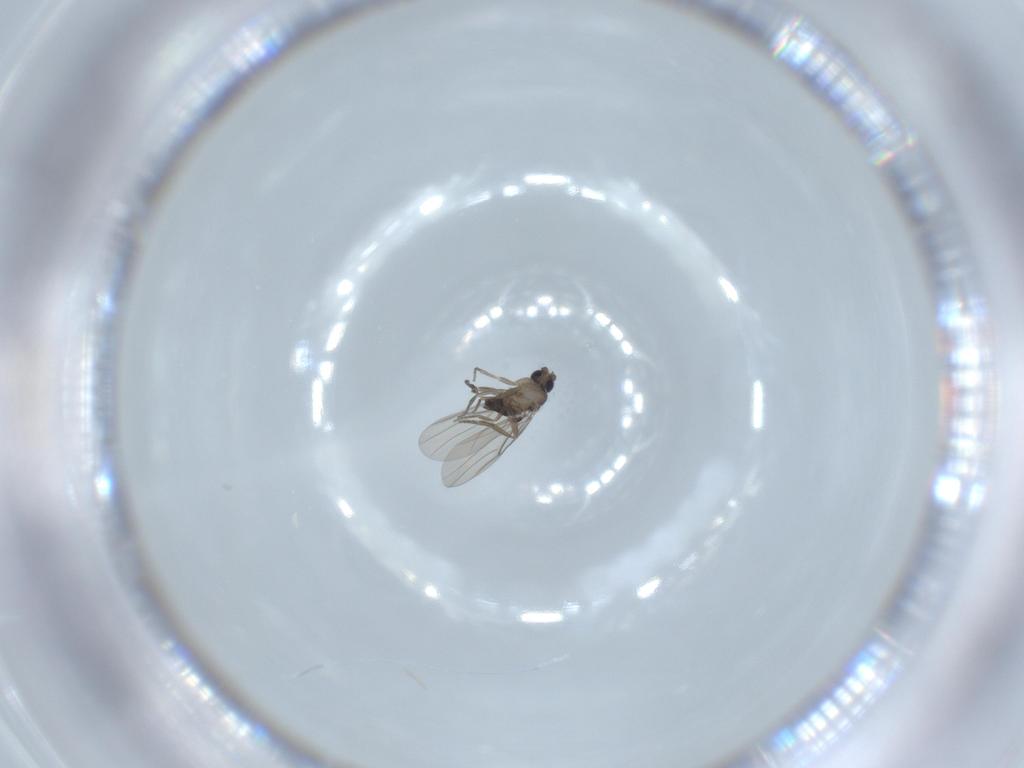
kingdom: Animalia
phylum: Arthropoda
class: Insecta
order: Diptera
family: Phoridae
